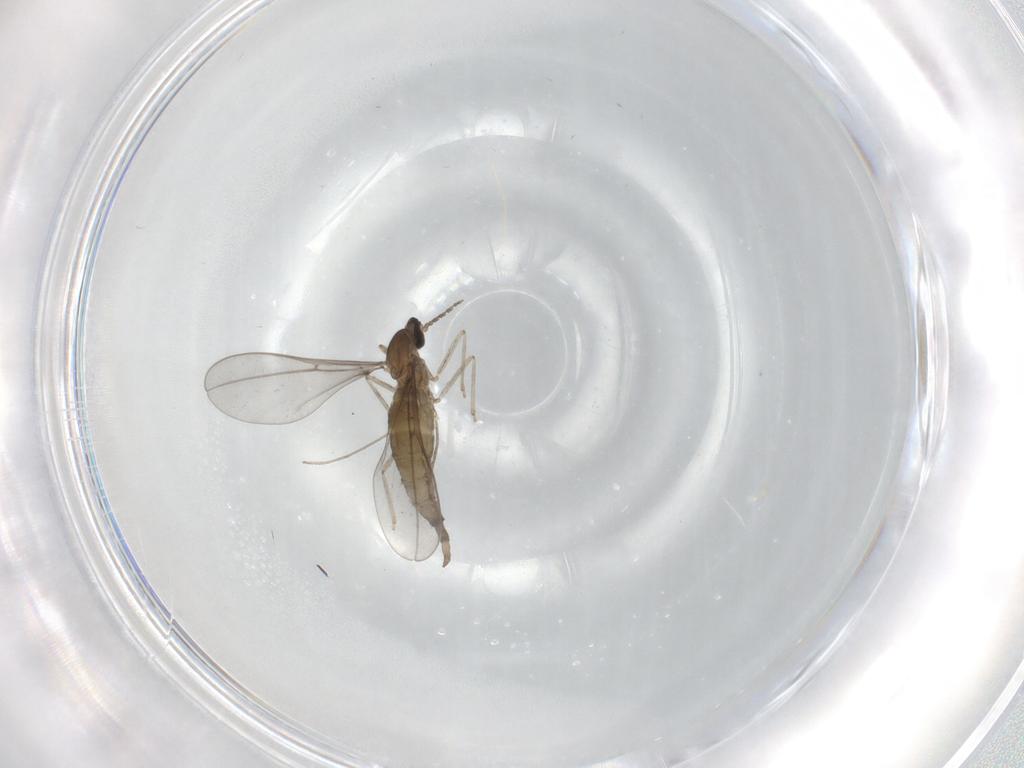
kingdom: Animalia
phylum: Arthropoda
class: Insecta
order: Diptera
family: Cecidomyiidae
